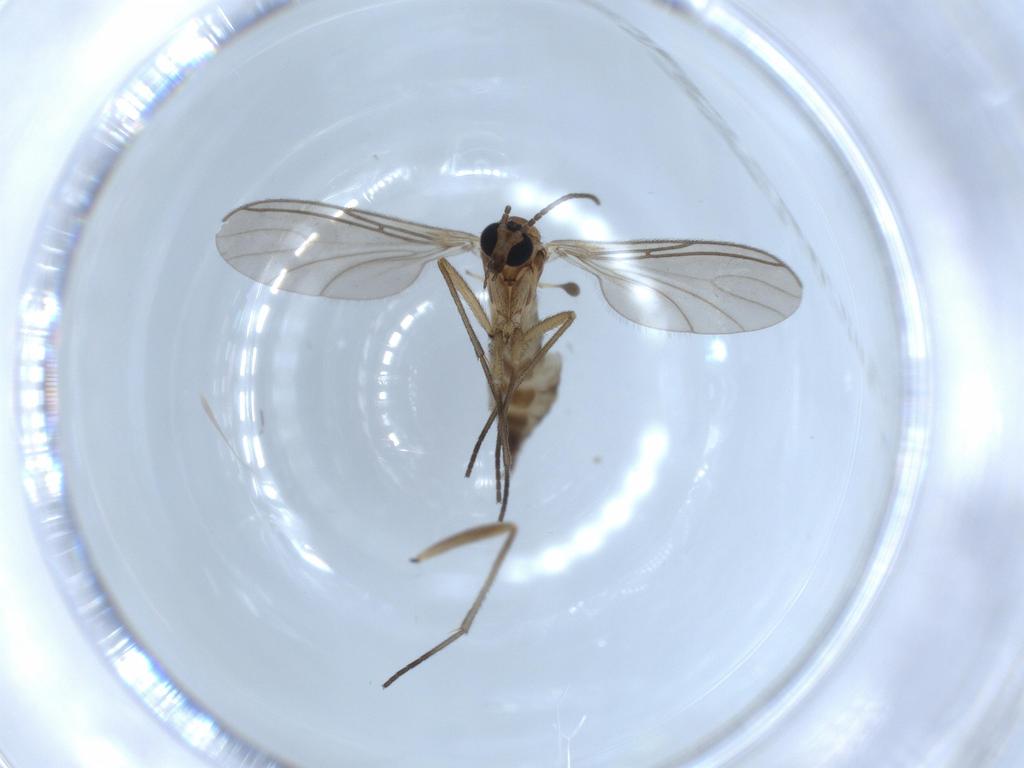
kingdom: Animalia
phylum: Arthropoda
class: Insecta
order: Diptera
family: Sciaridae
